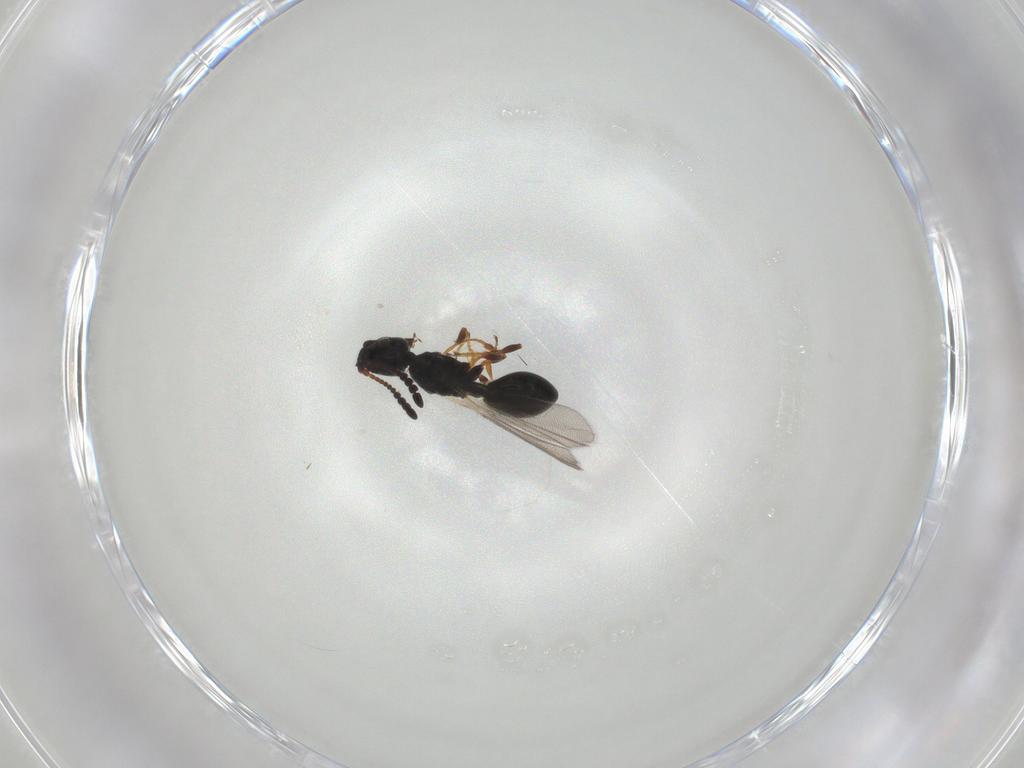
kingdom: Animalia
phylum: Arthropoda
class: Insecta
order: Hymenoptera
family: Diapriidae
